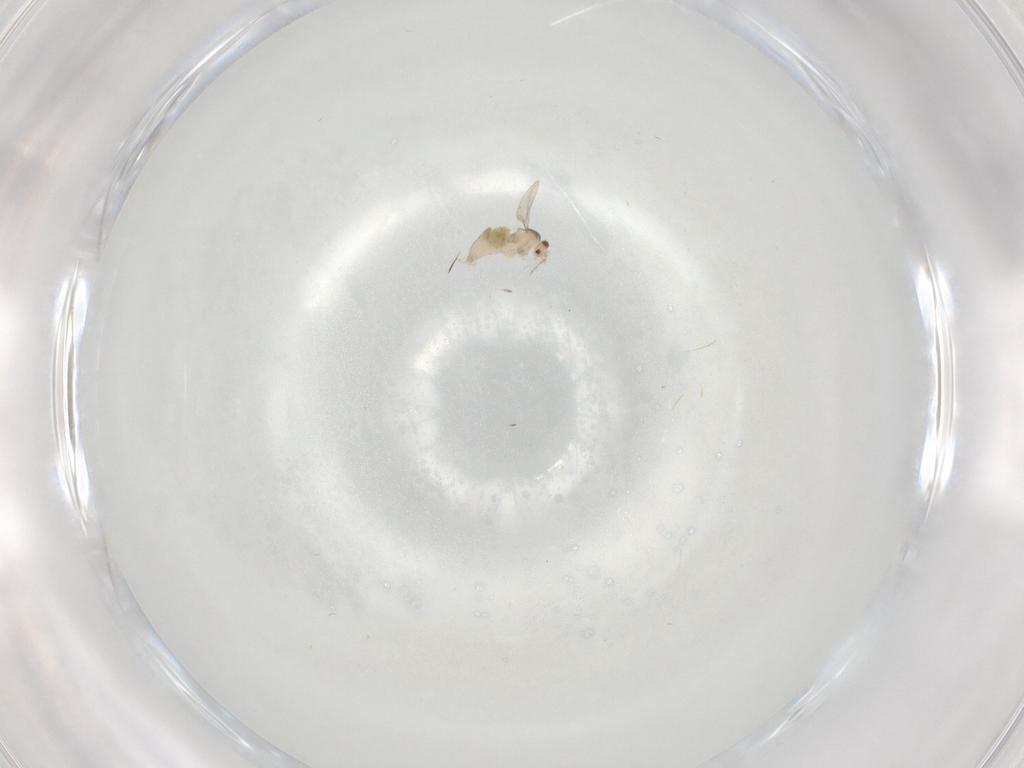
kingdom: Animalia
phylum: Arthropoda
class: Insecta
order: Diptera
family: Cecidomyiidae
